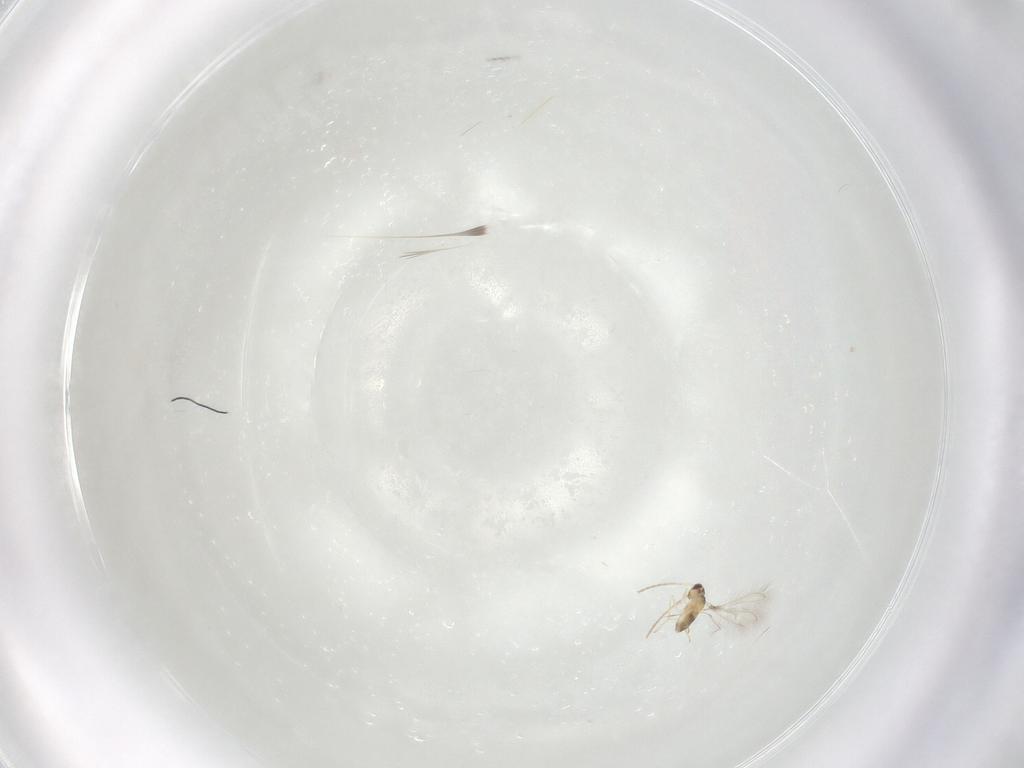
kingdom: Animalia
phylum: Arthropoda
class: Insecta
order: Hymenoptera
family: Mymaridae
